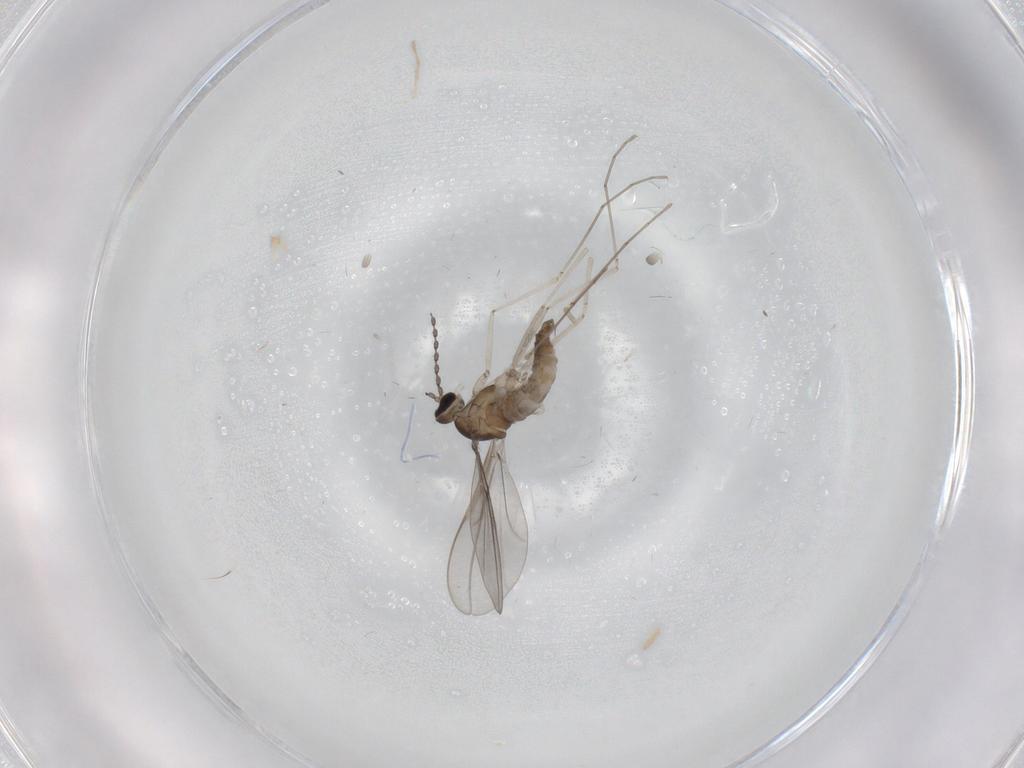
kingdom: Animalia
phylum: Arthropoda
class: Insecta
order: Diptera
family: Cecidomyiidae
